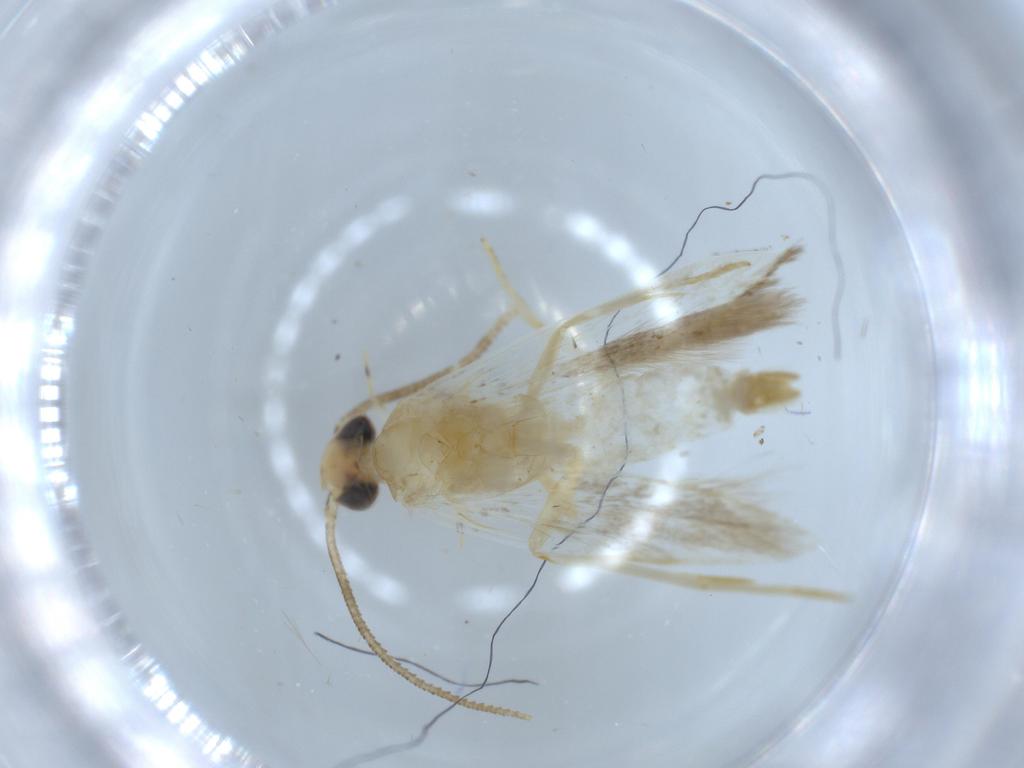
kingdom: Animalia
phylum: Arthropoda
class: Insecta
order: Lepidoptera
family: Autostichidae
